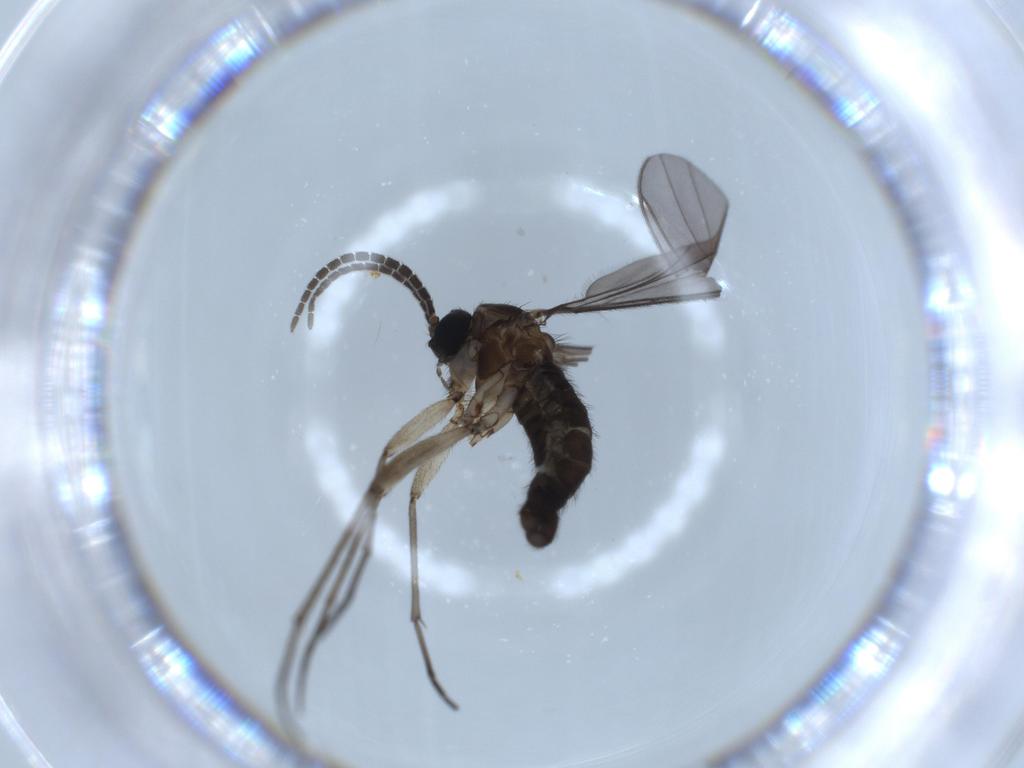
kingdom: Animalia
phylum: Arthropoda
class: Insecta
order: Diptera
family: Sciaridae
